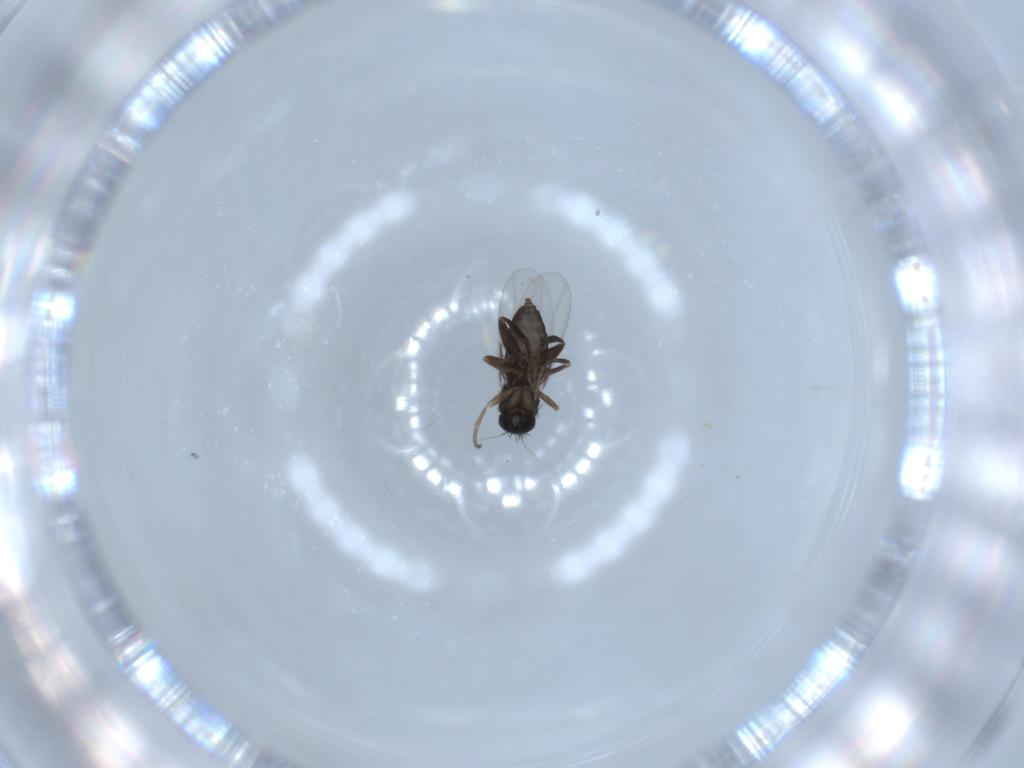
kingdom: Animalia
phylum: Arthropoda
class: Insecta
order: Diptera
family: Phoridae
